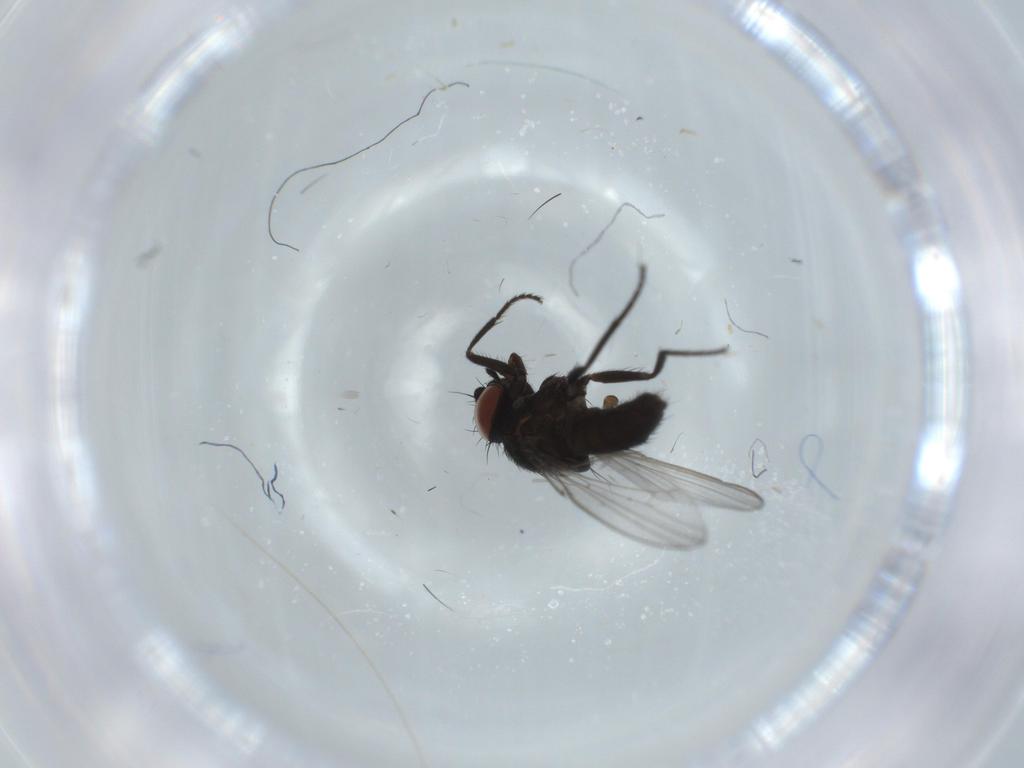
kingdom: Animalia
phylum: Arthropoda
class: Insecta
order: Diptera
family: Milichiidae
